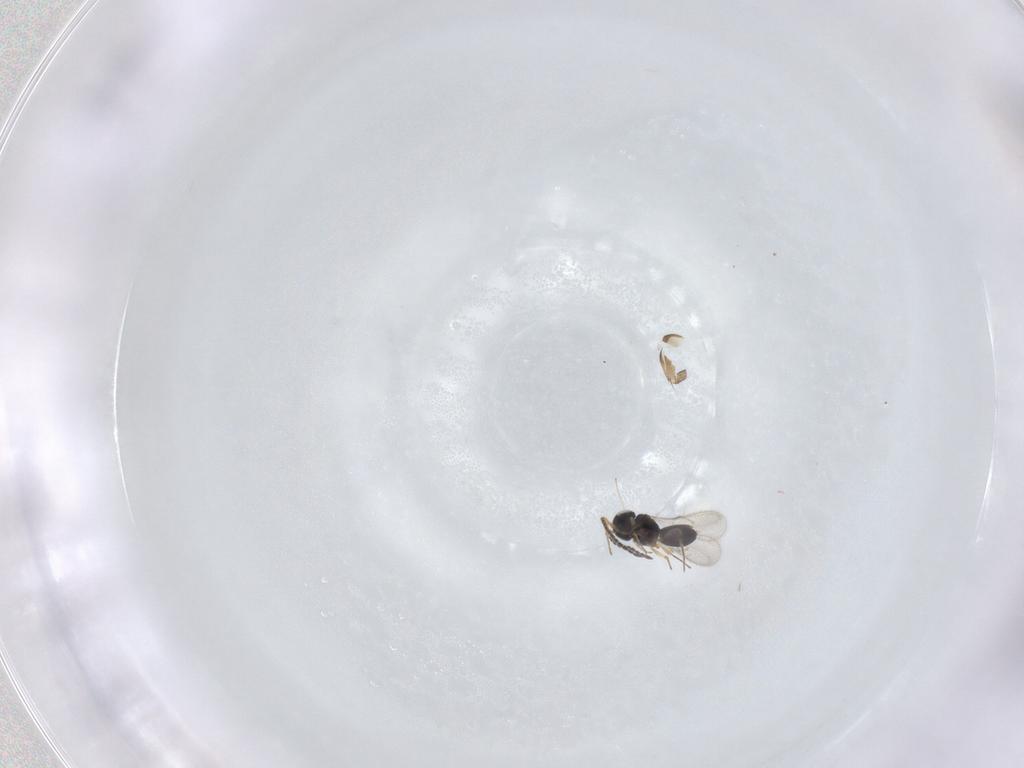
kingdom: Animalia
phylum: Arthropoda
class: Insecta
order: Hymenoptera
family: Scelionidae
